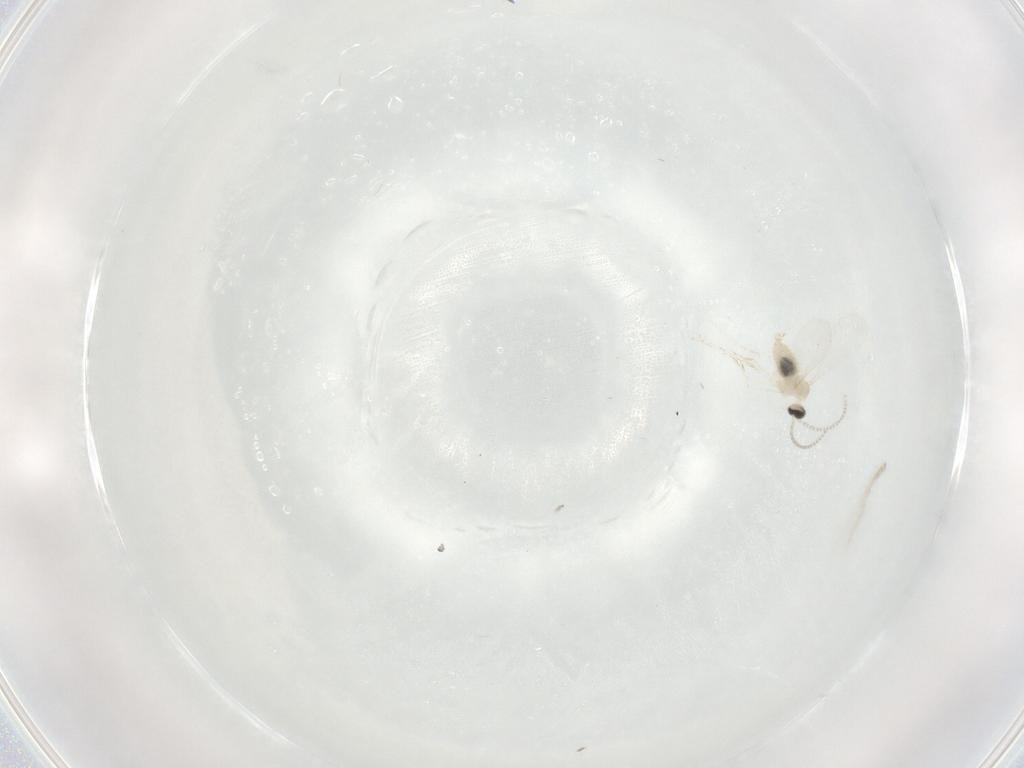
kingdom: Animalia
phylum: Arthropoda
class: Insecta
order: Diptera
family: Cecidomyiidae
